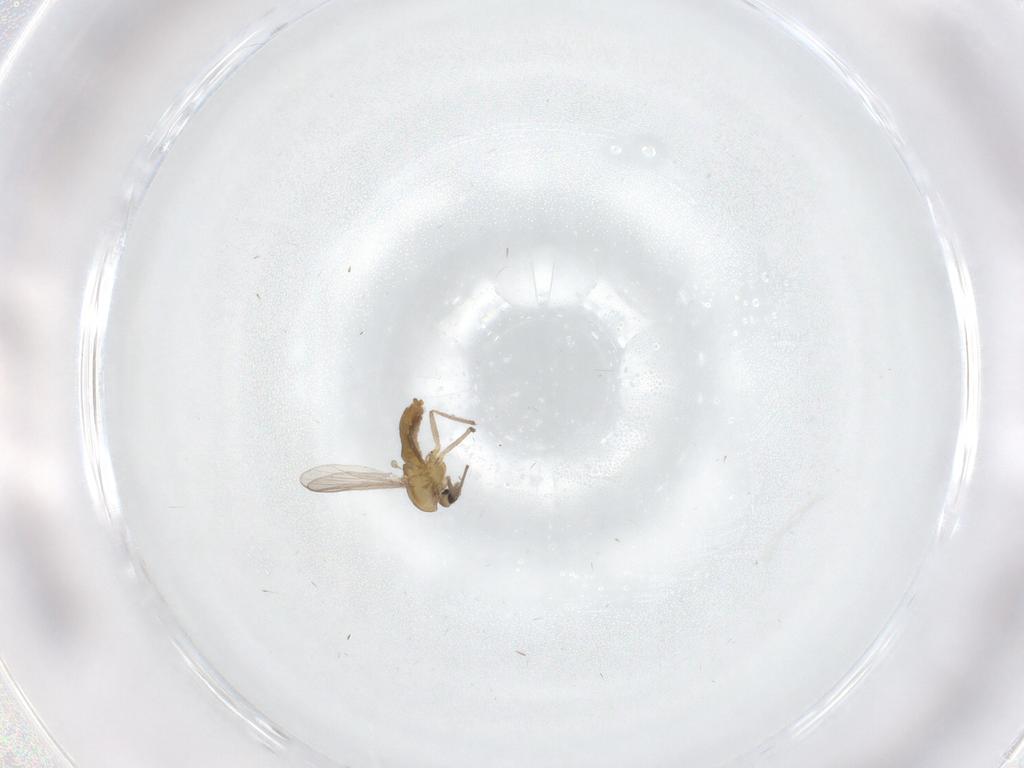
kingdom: Animalia
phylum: Arthropoda
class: Insecta
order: Diptera
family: Chironomidae
